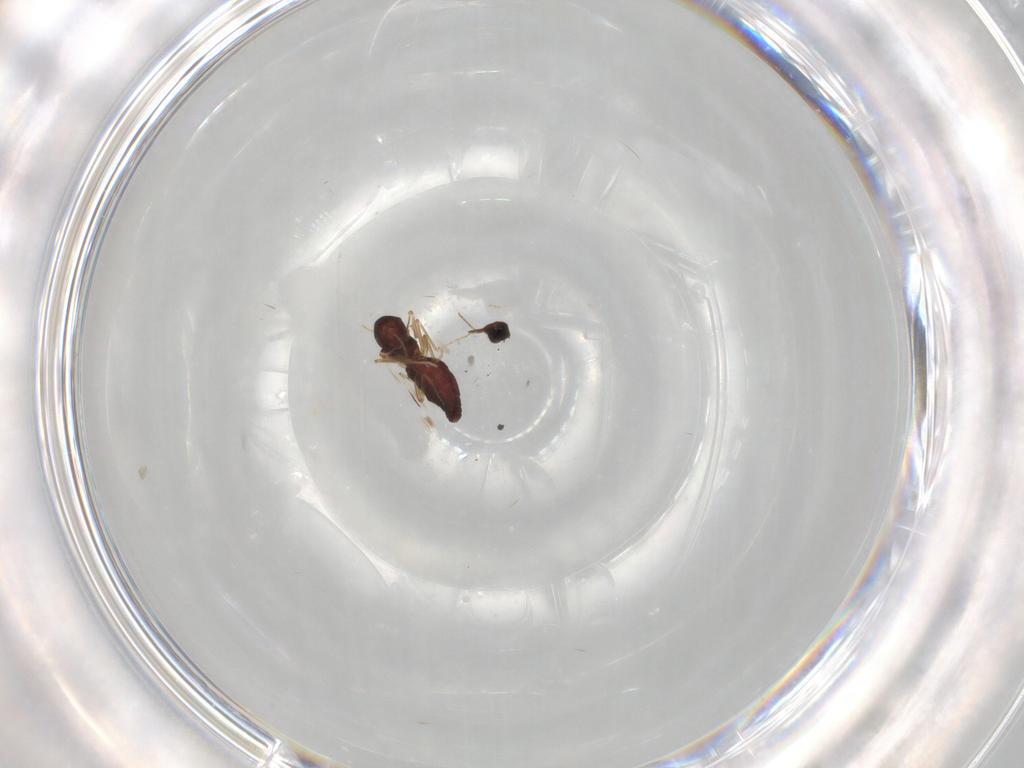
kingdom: Animalia
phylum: Arthropoda
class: Insecta
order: Diptera
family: Ceratopogonidae
